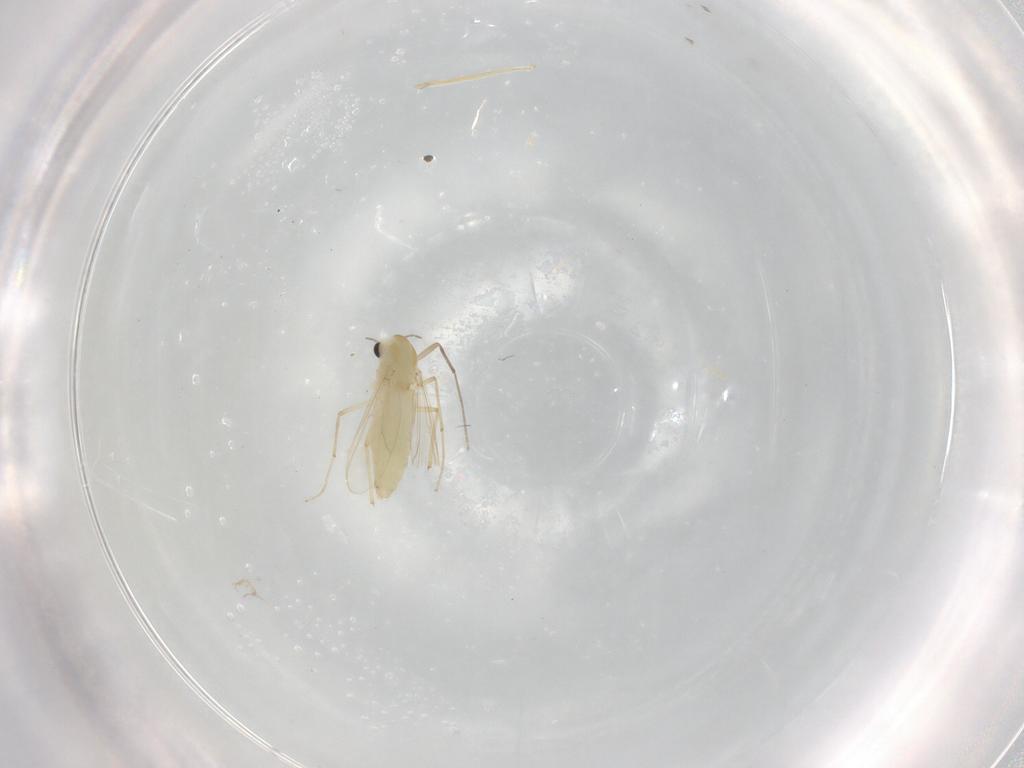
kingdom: Animalia
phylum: Arthropoda
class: Insecta
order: Diptera
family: Chironomidae
